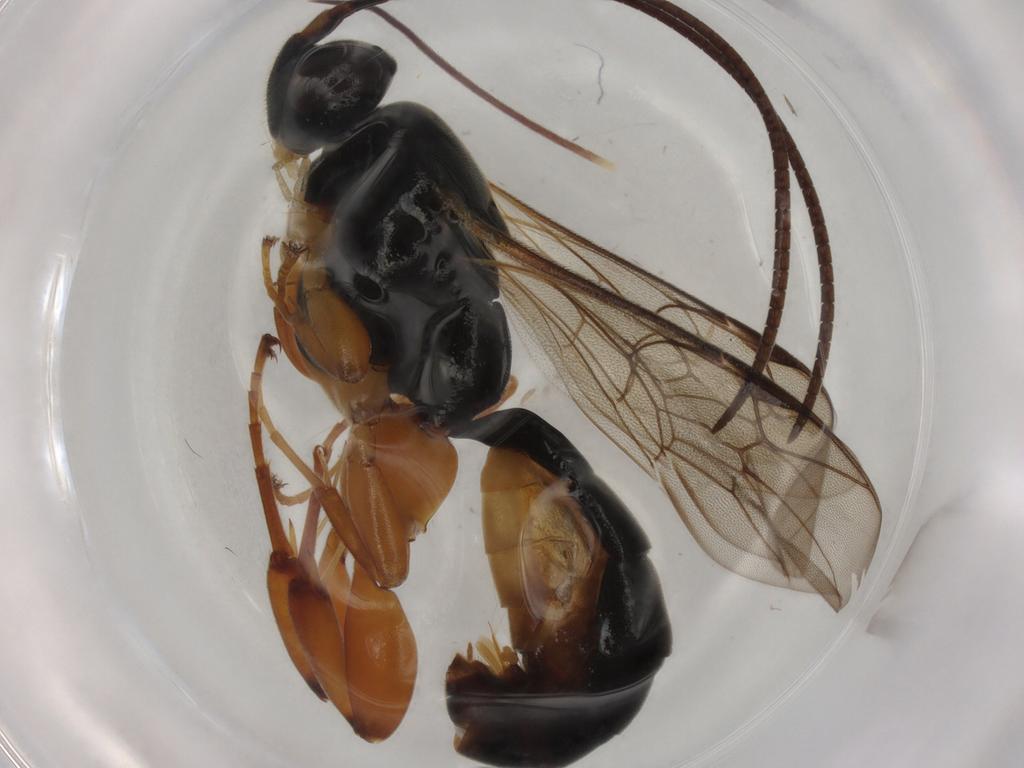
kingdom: Animalia
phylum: Arthropoda
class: Insecta
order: Hymenoptera
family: Ichneumonidae
